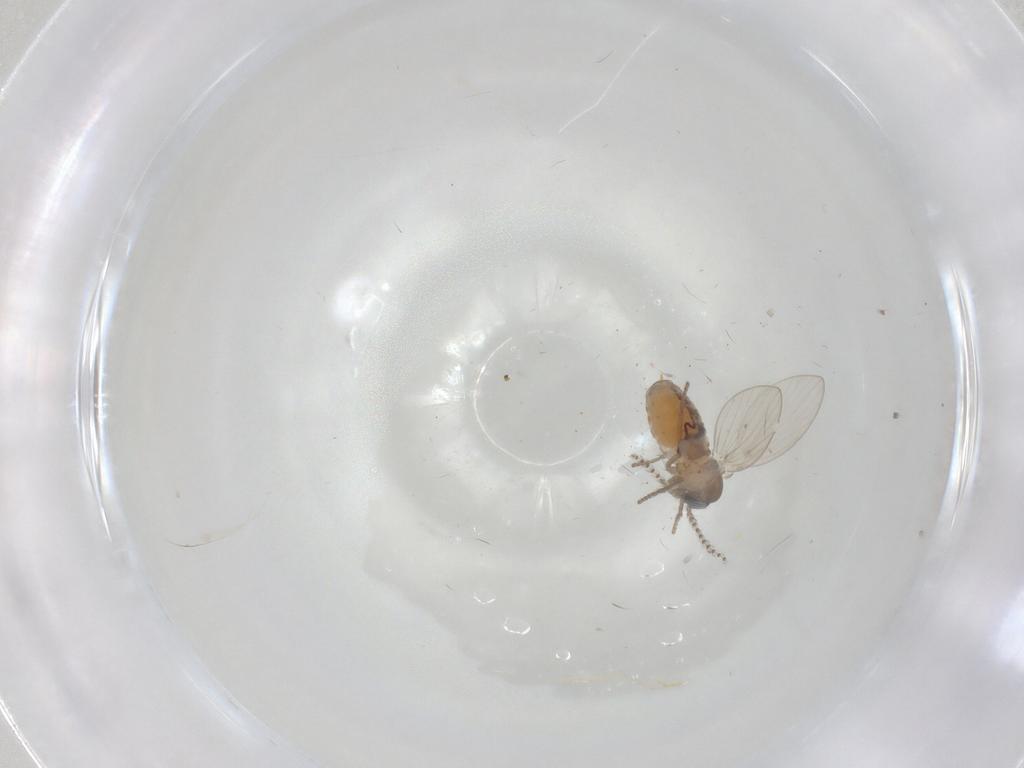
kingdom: Animalia
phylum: Arthropoda
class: Insecta
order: Diptera
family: Psychodidae
